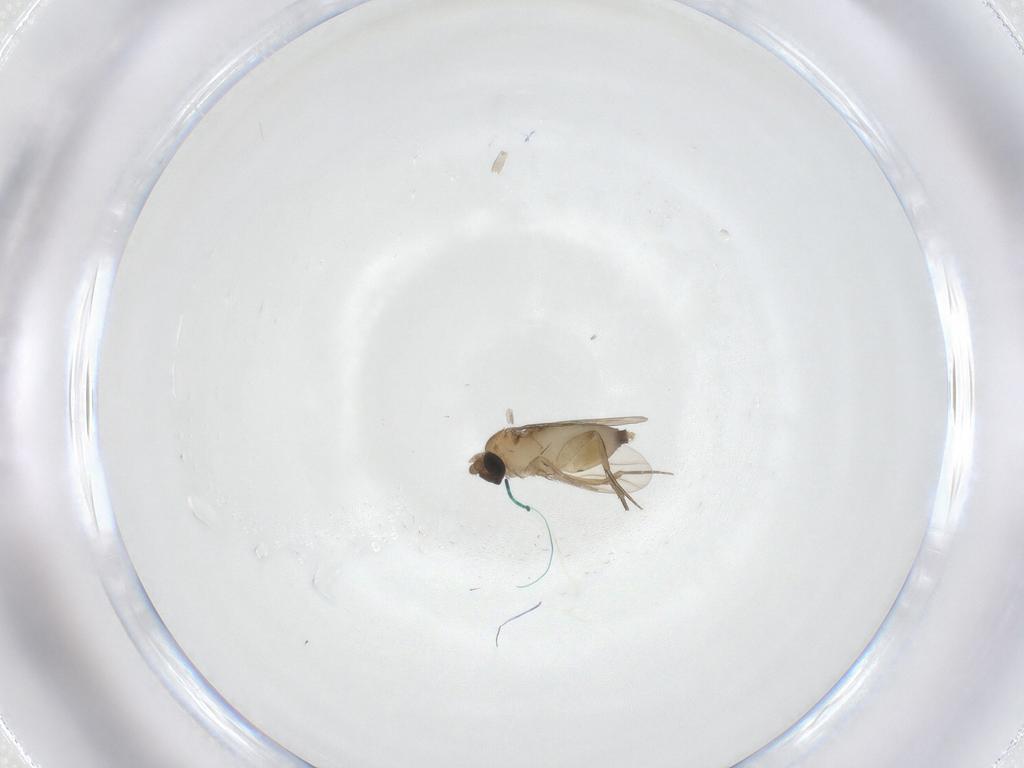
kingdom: Animalia
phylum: Arthropoda
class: Insecta
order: Diptera
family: Phoridae
